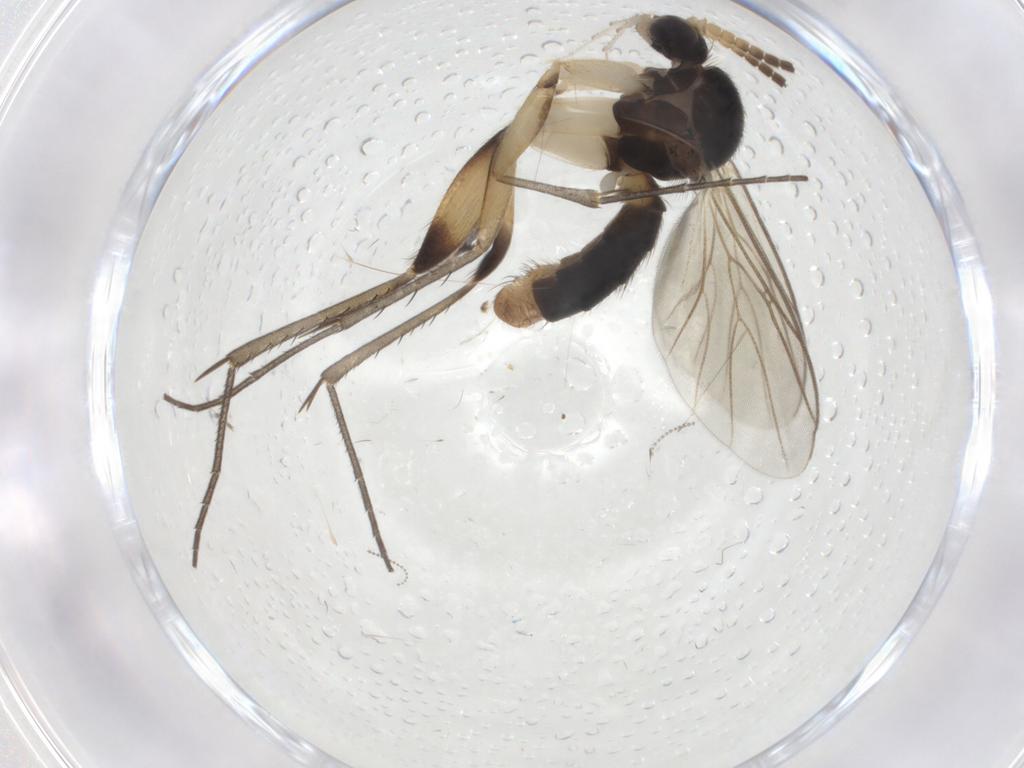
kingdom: Animalia
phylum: Arthropoda
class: Insecta
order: Diptera
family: Mycetophilidae
